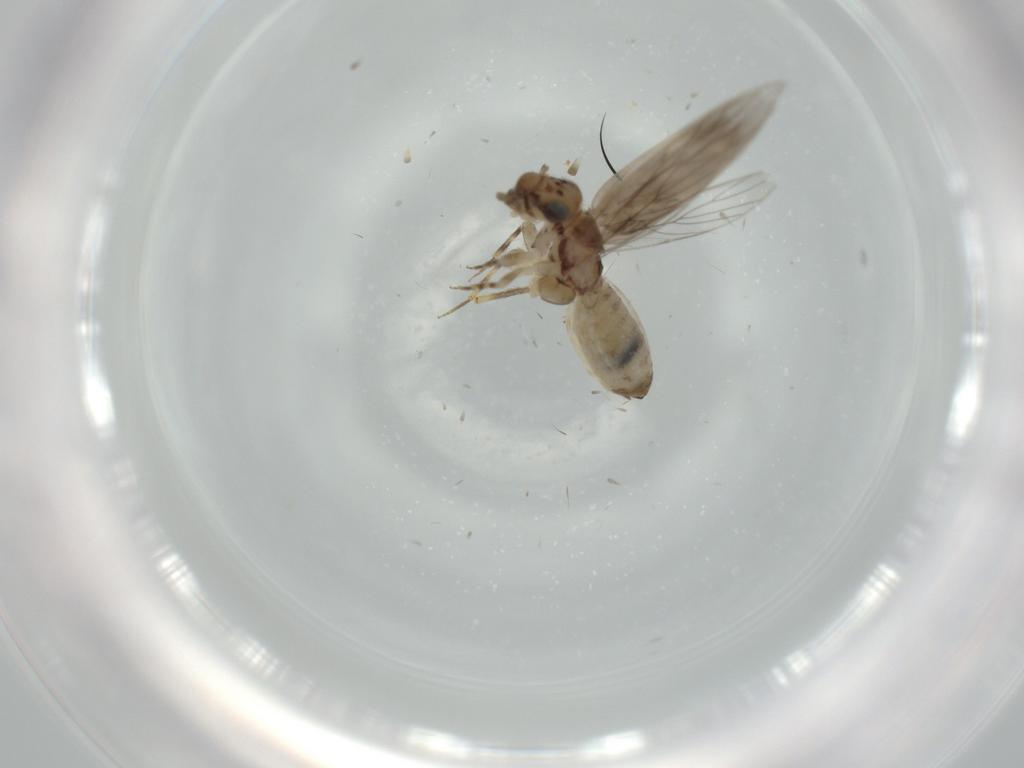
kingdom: Animalia
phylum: Arthropoda
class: Insecta
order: Psocodea
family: Lepidopsocidae
